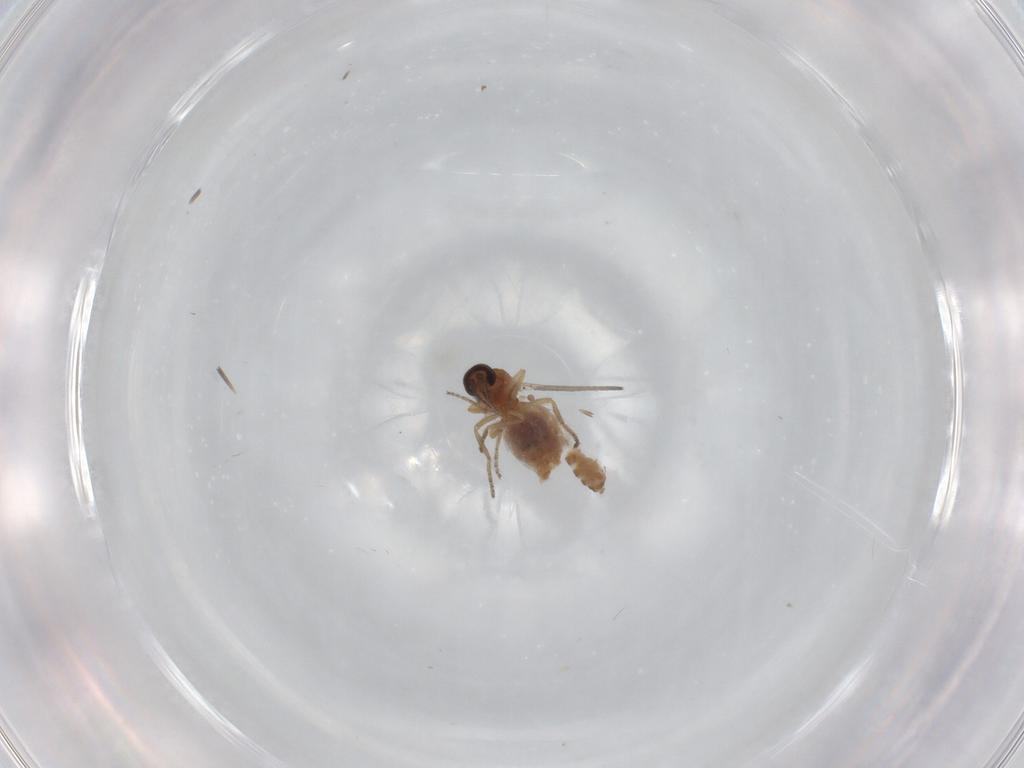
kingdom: Animalia
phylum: Arthropoda
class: Insecta
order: Diptera
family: Ceratopogonidae
